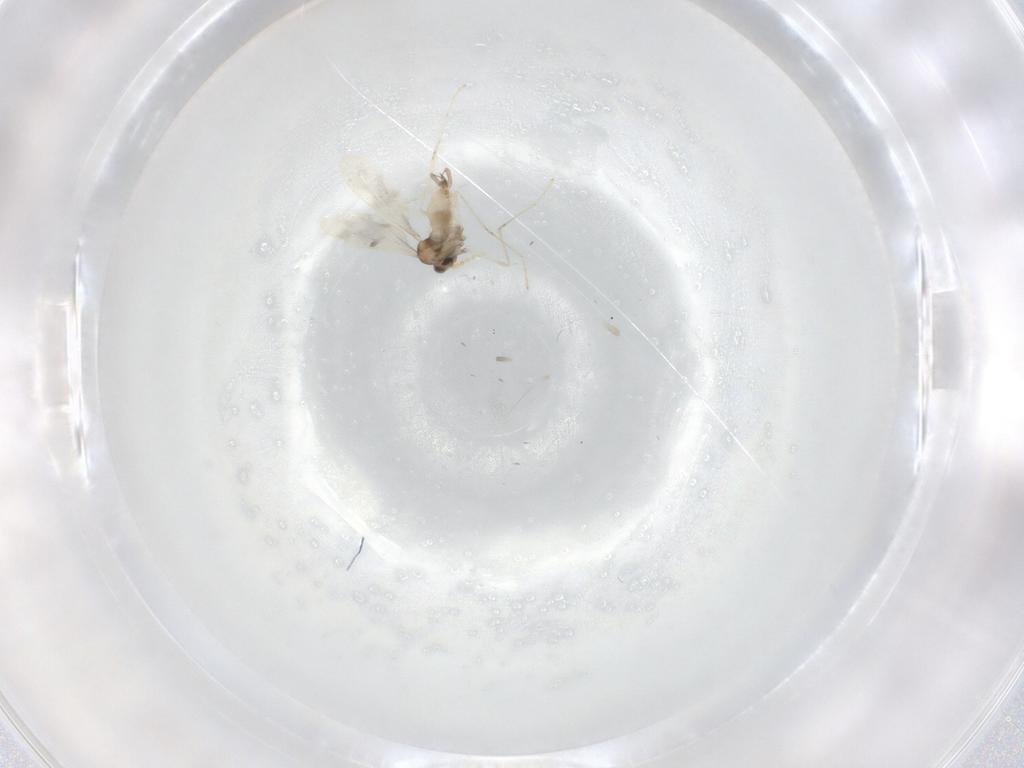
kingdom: Animalia
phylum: Arthropoda
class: Insecta
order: Diptera
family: Cecidomyiidae
